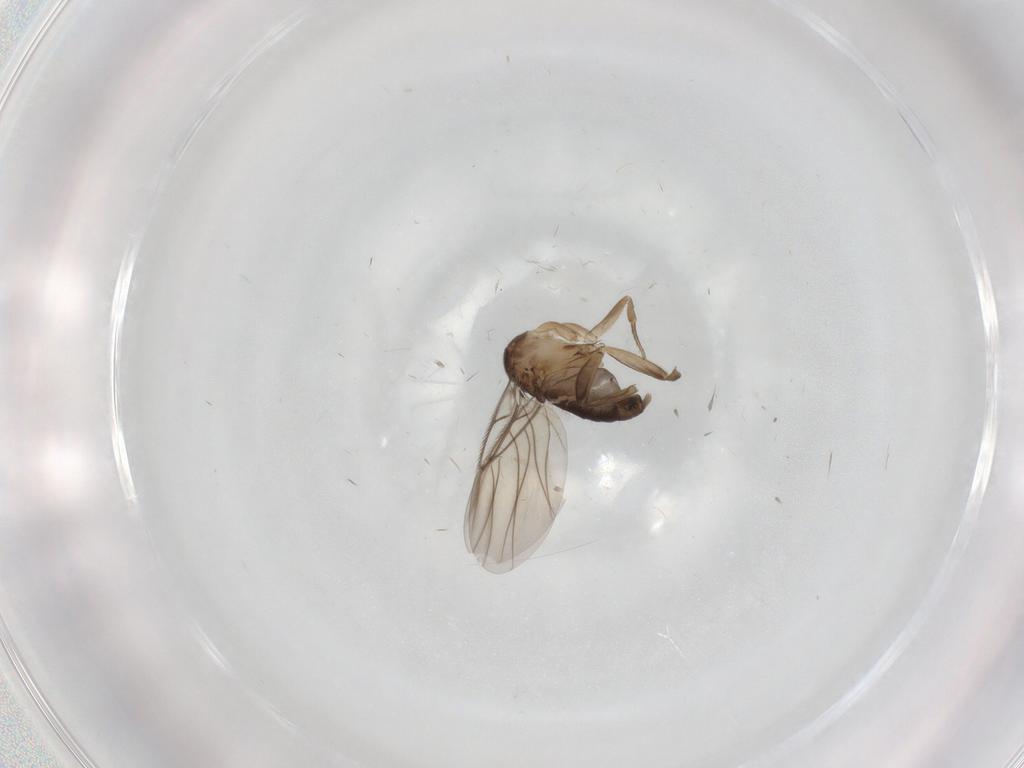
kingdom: Animalia
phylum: Arthropoda
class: Insecta
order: Diptera
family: Phoridae
